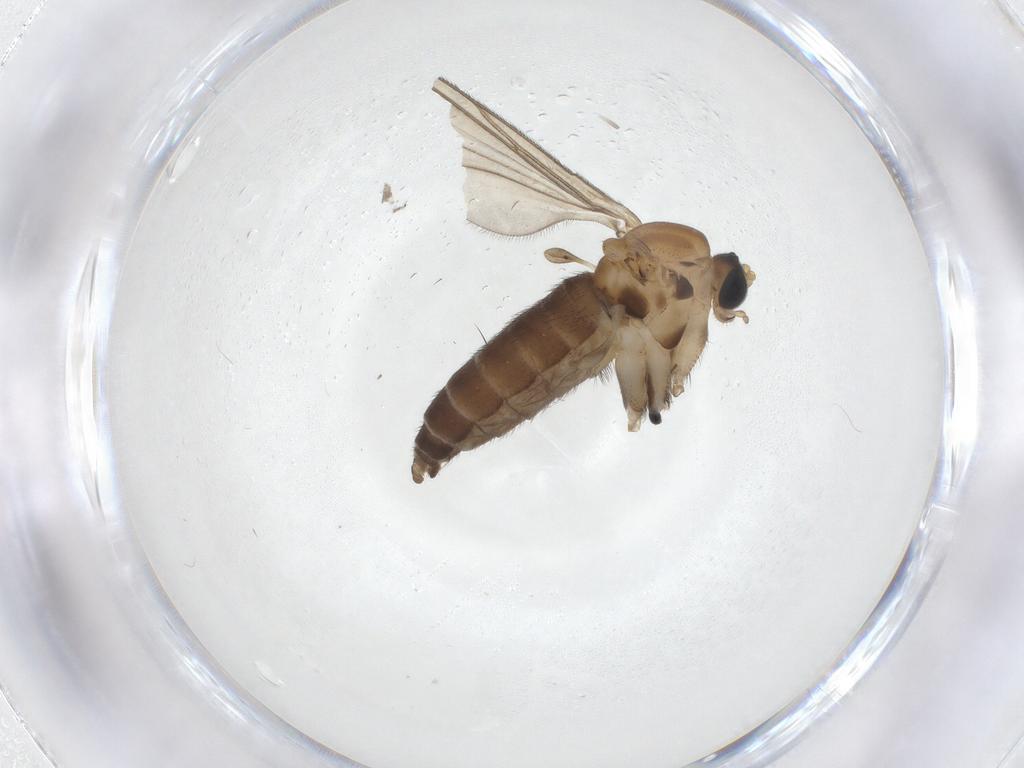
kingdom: Animalia
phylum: Arthropoda
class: Insecta
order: Diptera
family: Sciaridae
